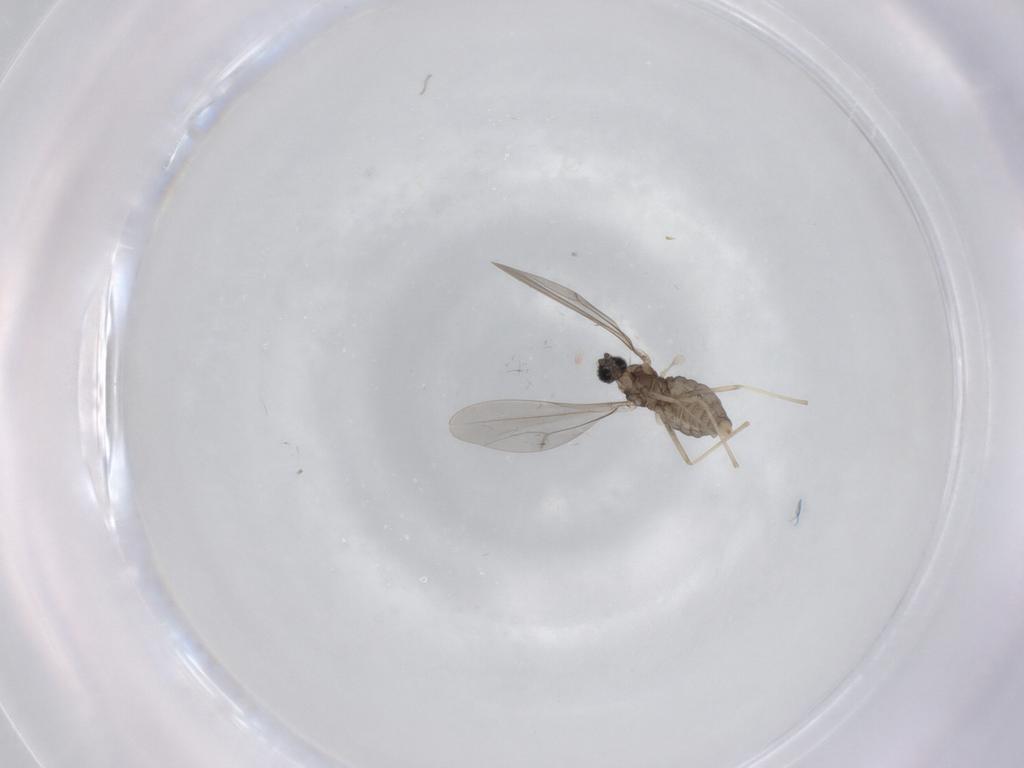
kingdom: Animalia
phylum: Arthropoda
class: Insecta
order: Diptera
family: Cecidomyiidae
